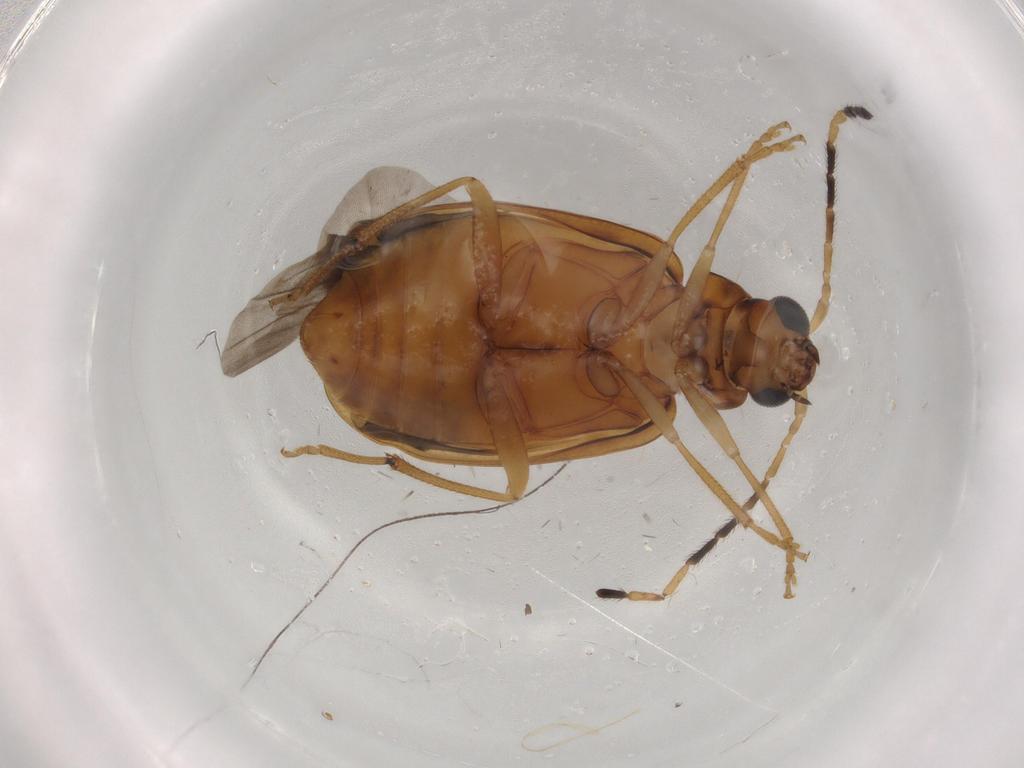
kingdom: Animalia
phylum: Arthropoda
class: Insecta
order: Coleoptera
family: Chrysomelidae
